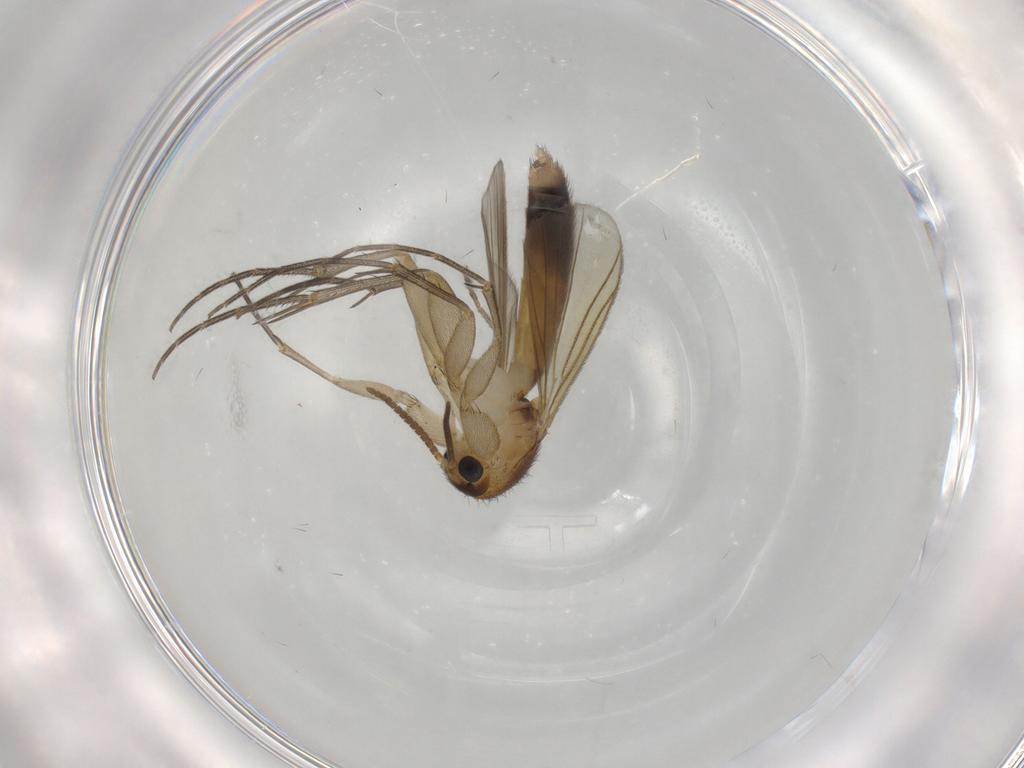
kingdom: Animalia
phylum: Arthropoda
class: Insecta
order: Diptera
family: Mycetophilidae
